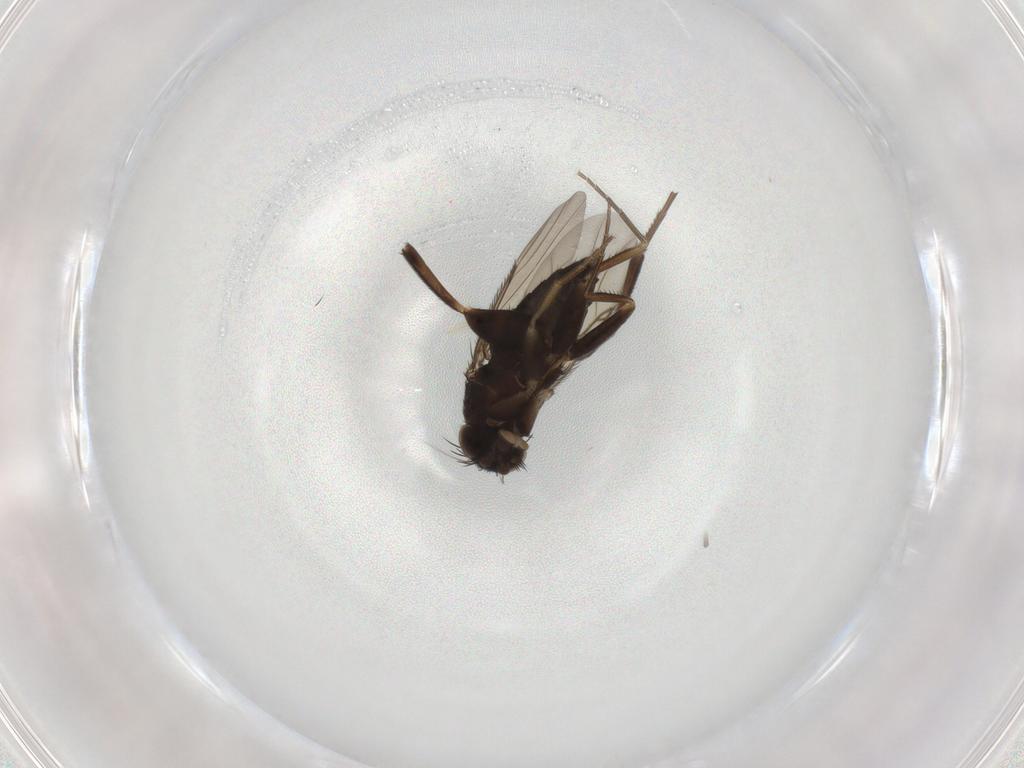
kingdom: Animalia
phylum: Arthropoda
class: Insecta
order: Diptera
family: Phoridae
